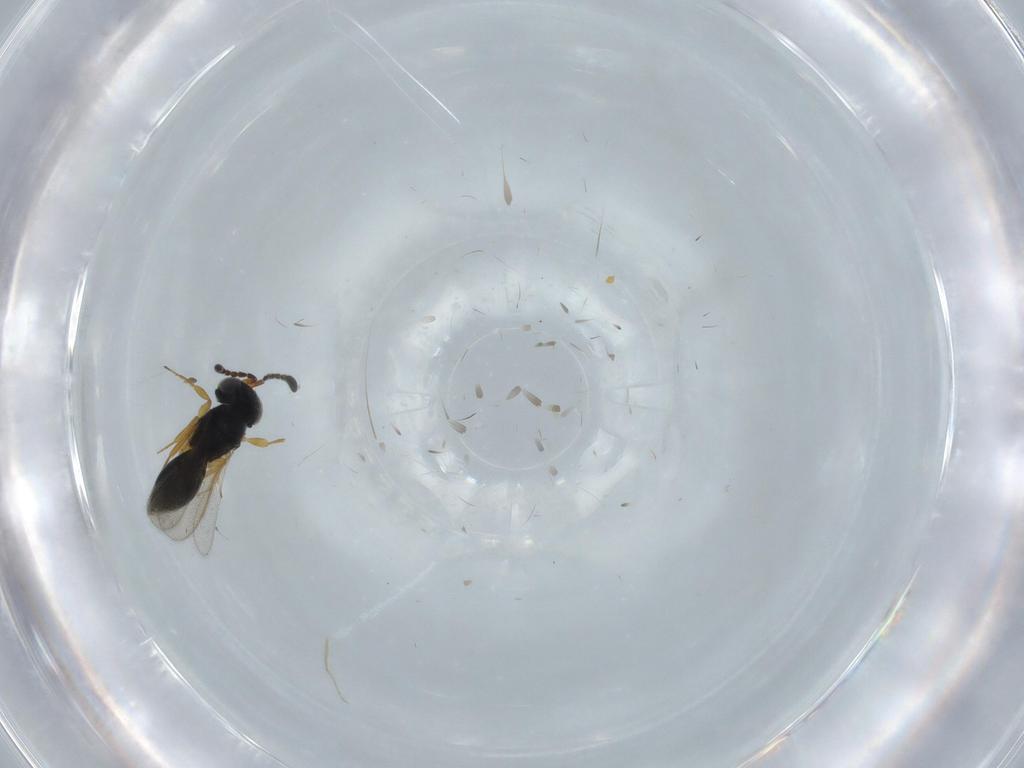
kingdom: Animalia
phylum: Arthropoda
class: Insecta
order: Hymenoptera
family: Scelionidae
